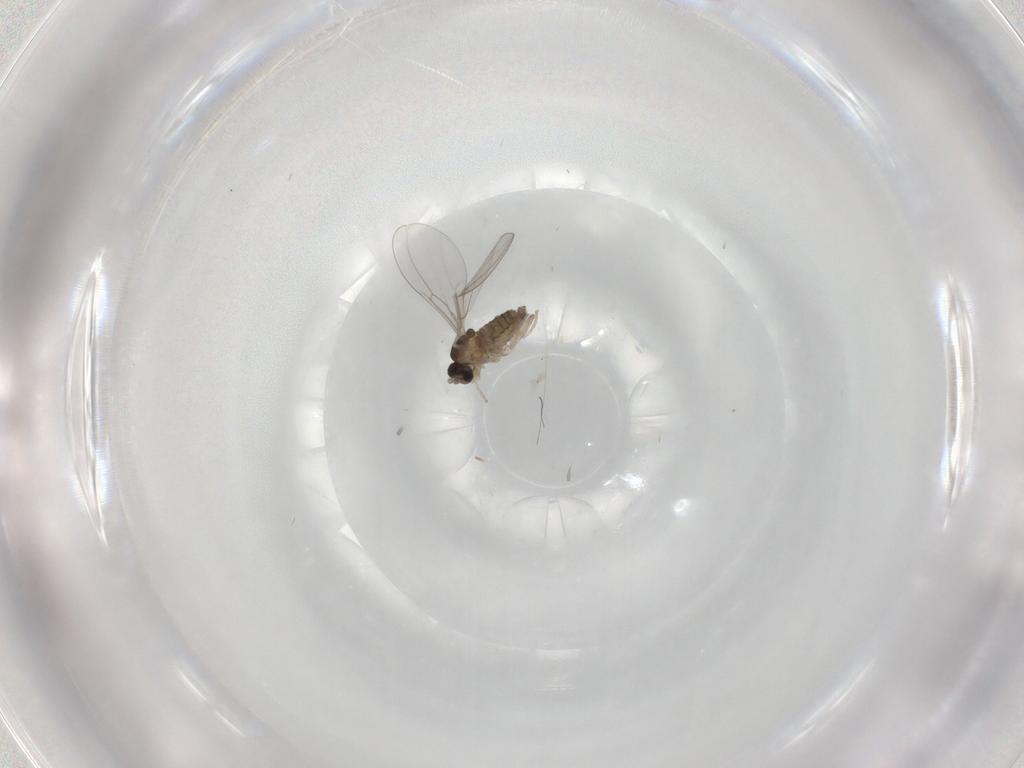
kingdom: Animalia
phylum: Arthropoda
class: Insecta
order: Diptera
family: Cecidomyiidae
